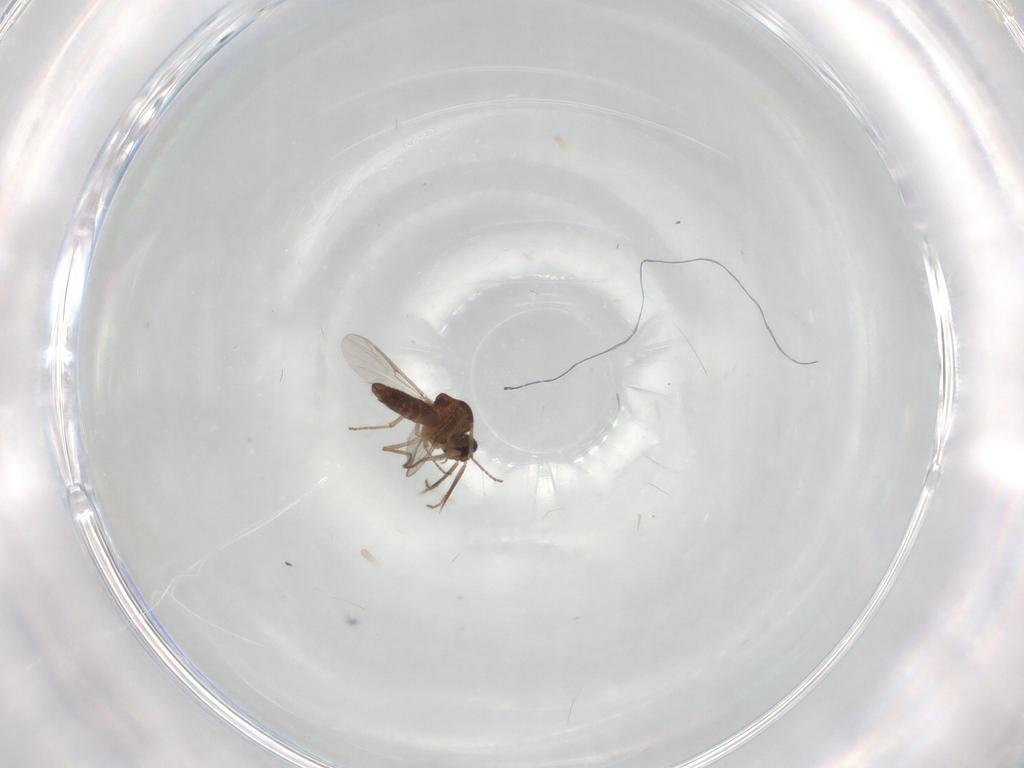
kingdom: Animalia
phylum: Arthropoda
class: Insecta
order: Diptera
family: Ceratopogonidae
